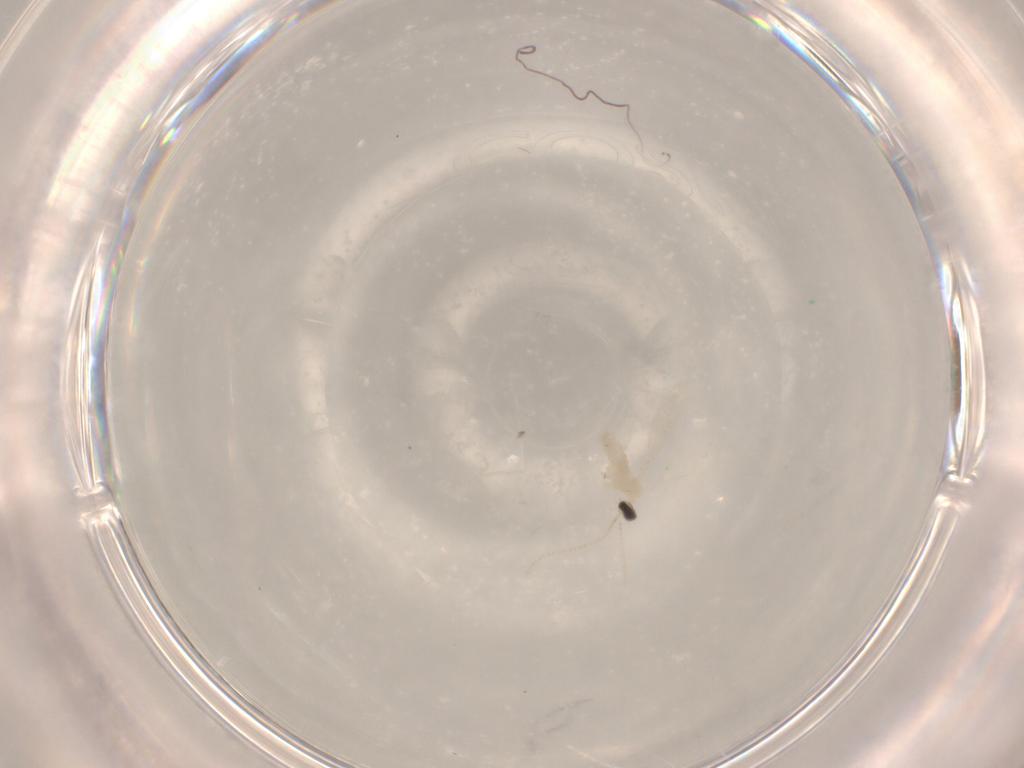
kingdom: Animalia
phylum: Arthropoda
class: Insecta
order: Diptera
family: Cecidomyiidae
